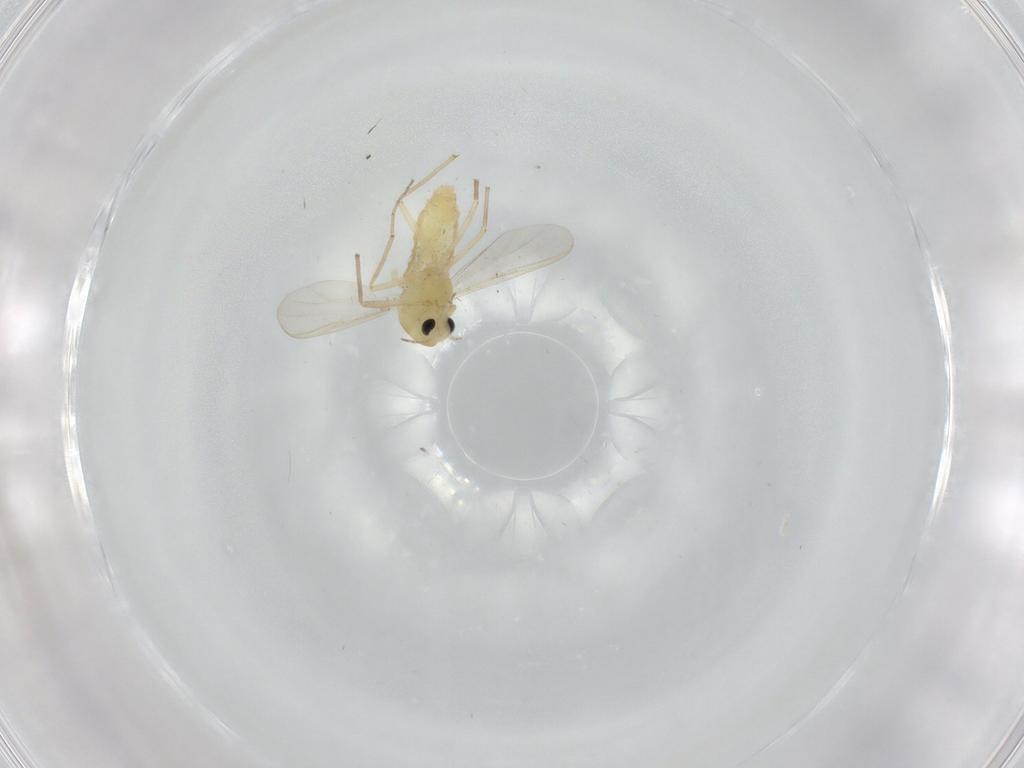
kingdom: Animalia
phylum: Arthropoda
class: Insecta
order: Diptera
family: Chironomidae
